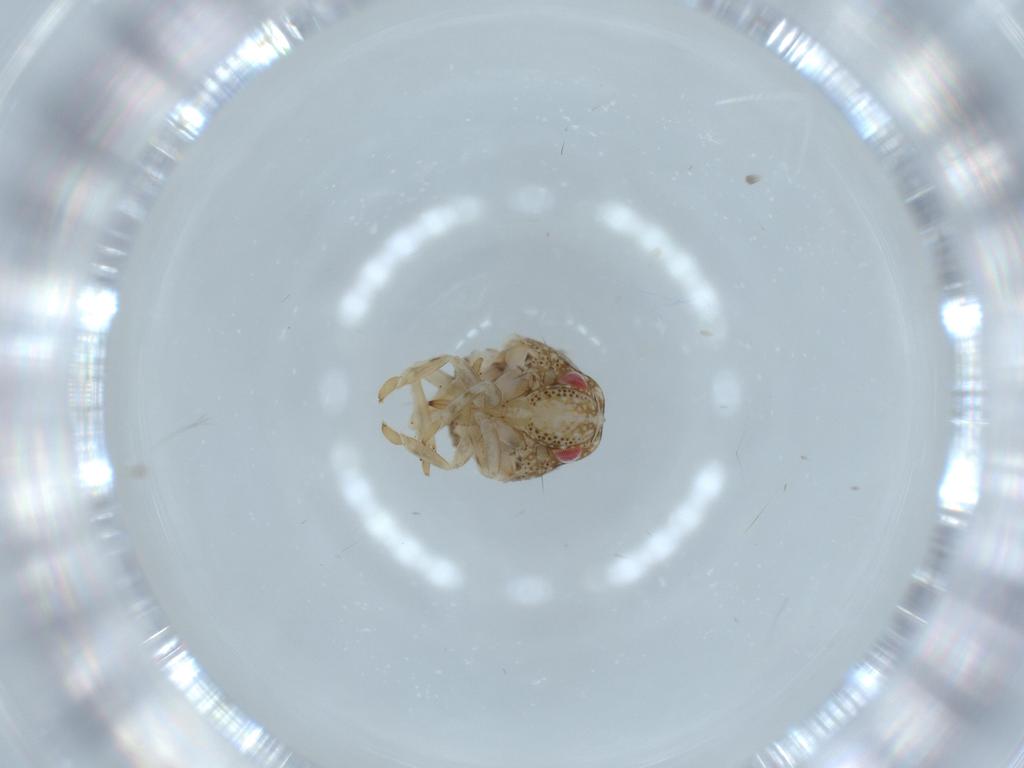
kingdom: Animalia
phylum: Arthropoda
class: Insecta
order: Hemiptera
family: Acanaloniidae
